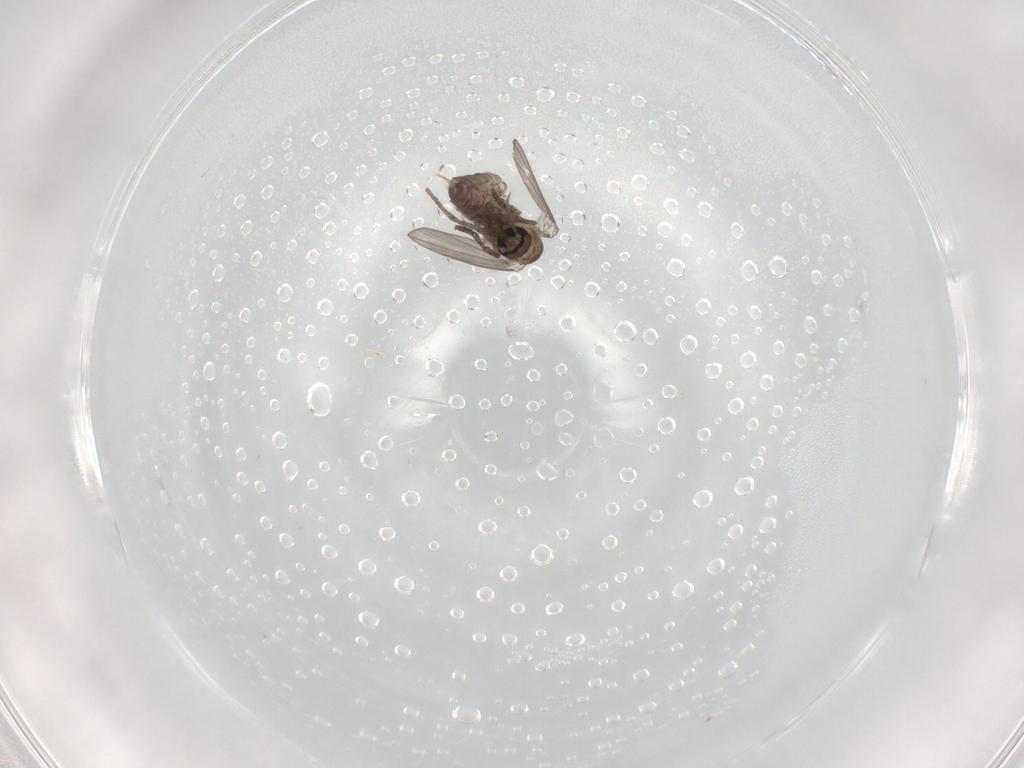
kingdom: Animalia
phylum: Arthropoda
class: Insecta
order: Diptera
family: Psychodidae
